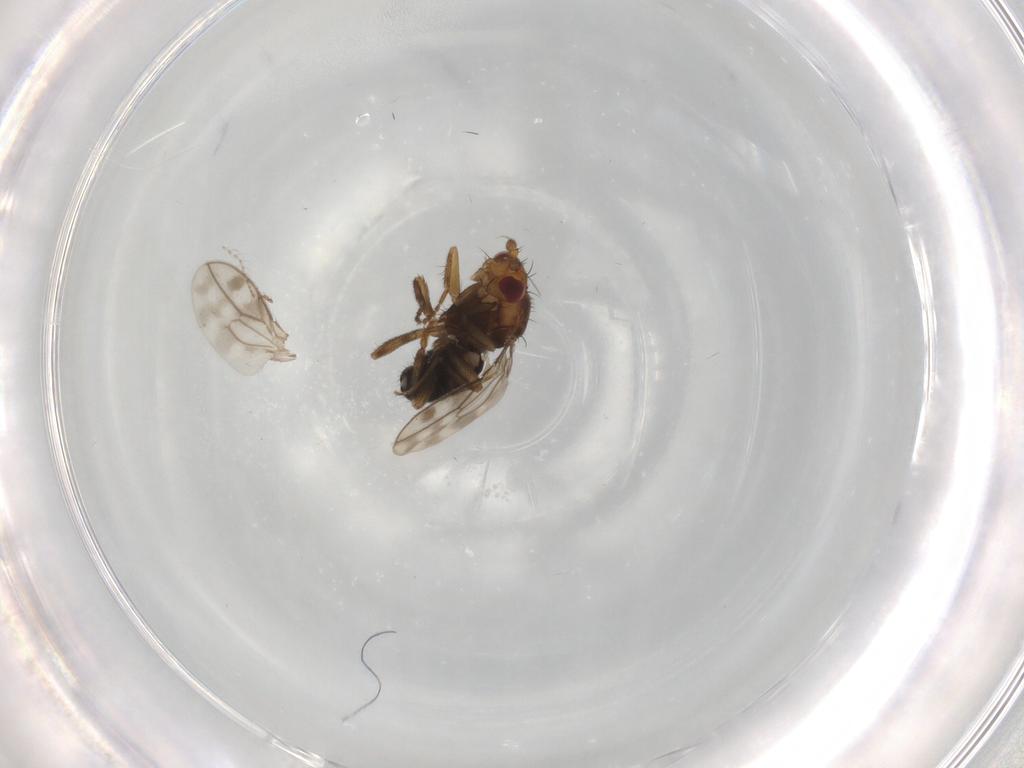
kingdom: Animalia
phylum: Arthropoda
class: Insecta
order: Diptera
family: Sphaeroceridae
